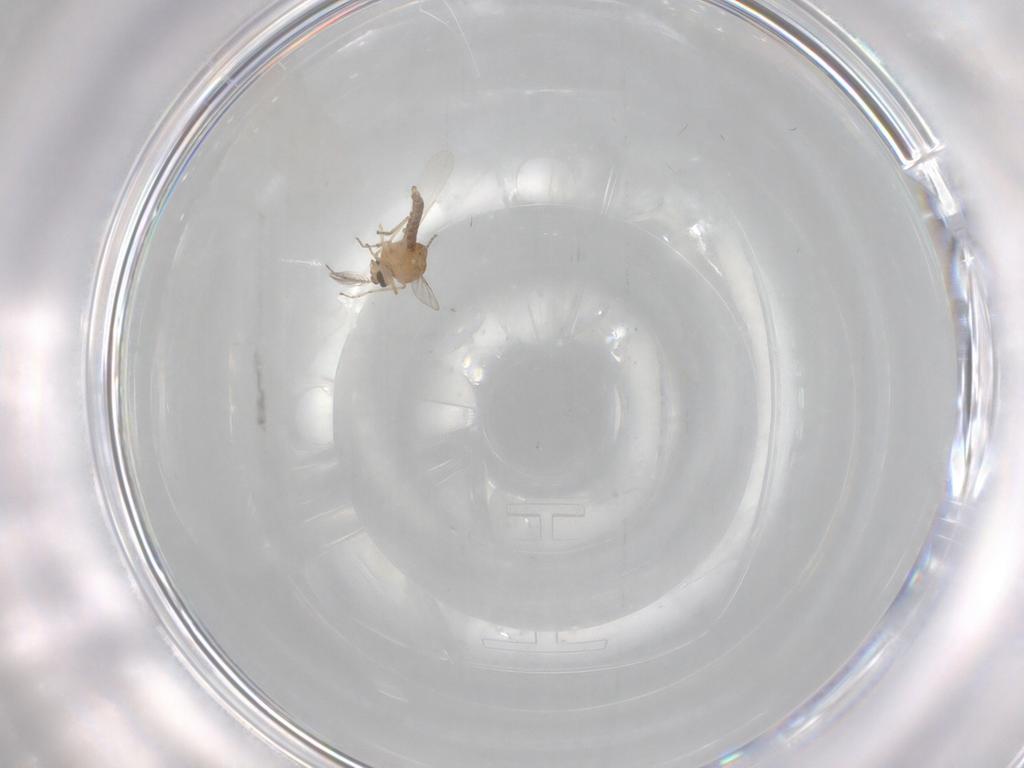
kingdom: Animalia
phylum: Arthropoda
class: Insecta
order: Diptera
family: Ceratopogonidae
